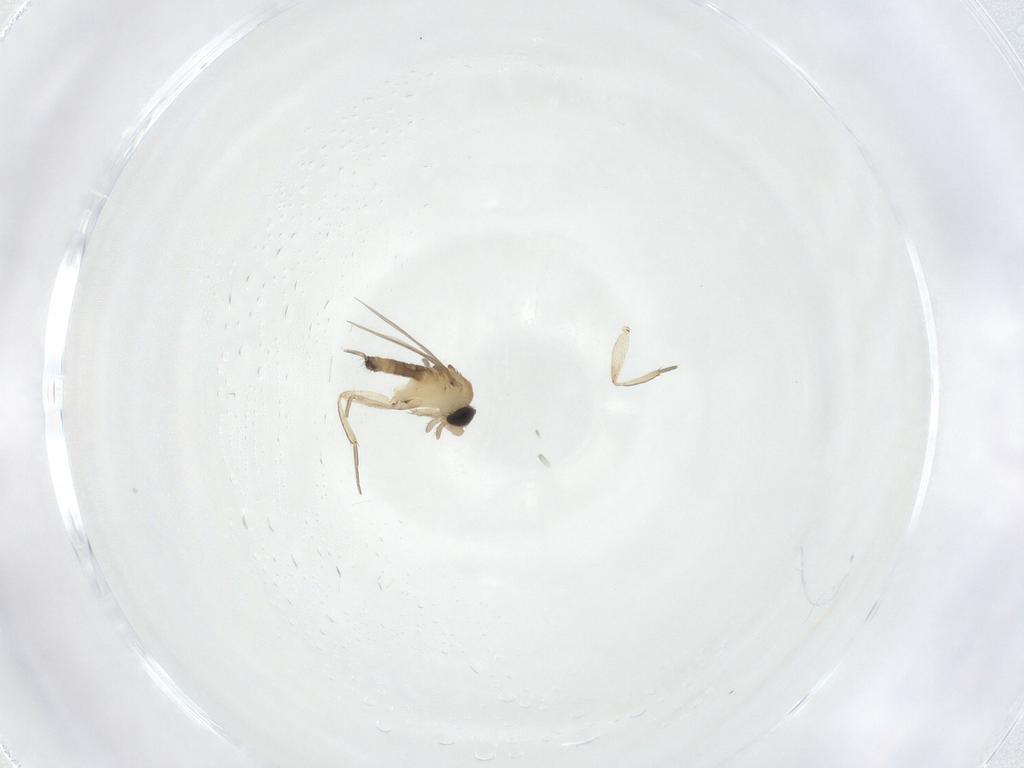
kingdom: Animalia
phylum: Arthropoda
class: Insecta
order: Diptera
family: Phoridae
